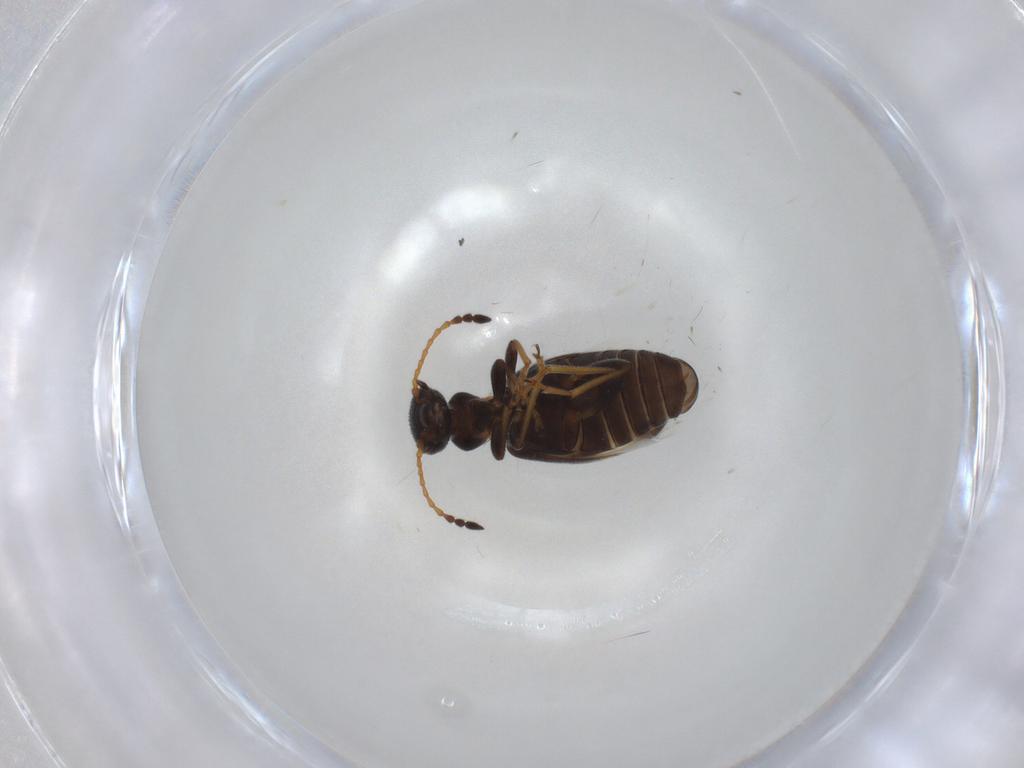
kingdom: Animalia
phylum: Arthropoda
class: Insecta
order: Coleoptera
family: Anthicidae
